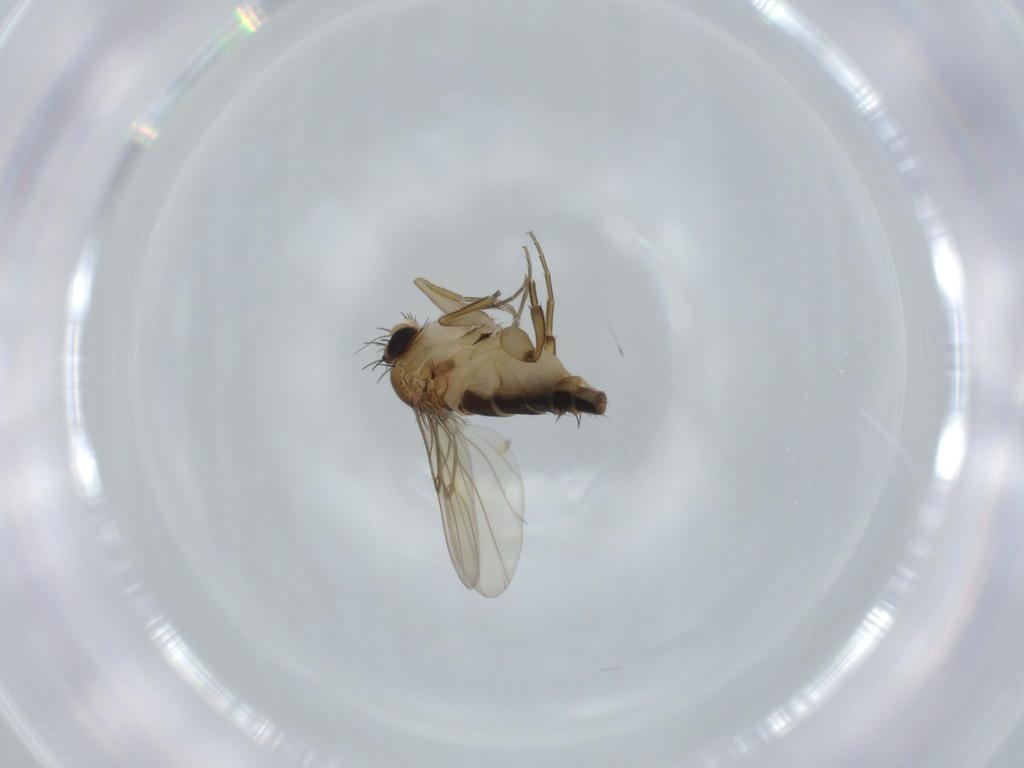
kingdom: Animalia
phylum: Arthropoda
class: Insecta
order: Diptera
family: Phoridae
